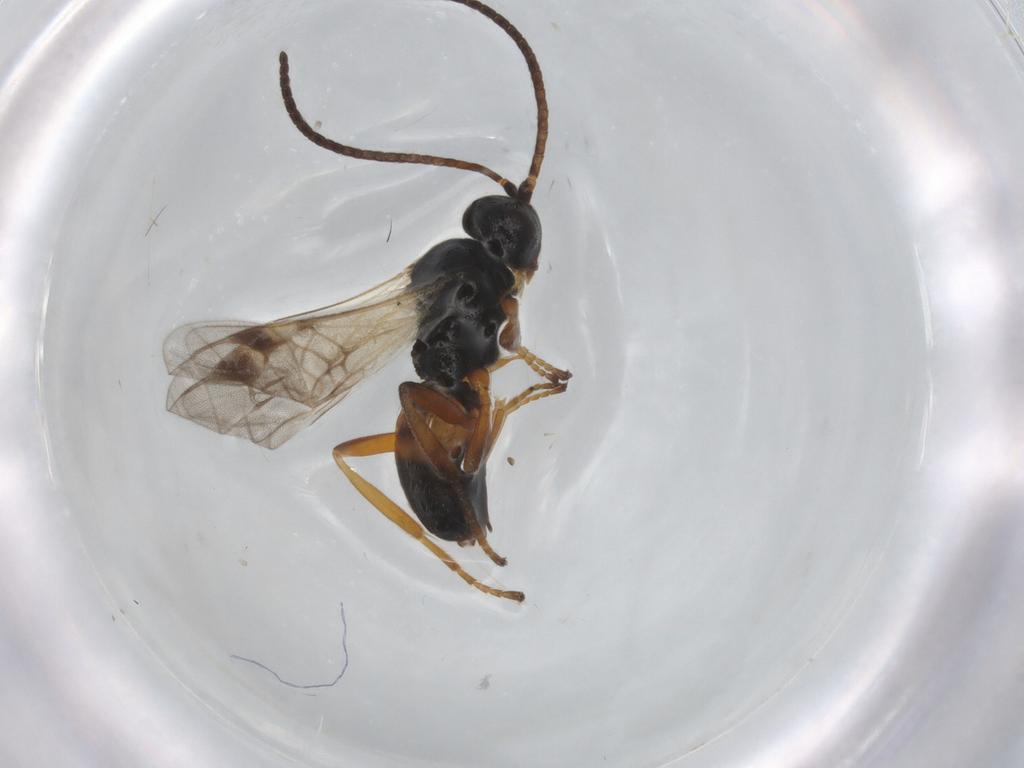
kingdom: Animalia
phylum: Arthropoda
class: Insecta
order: Hymenoptera
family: Braconidae
